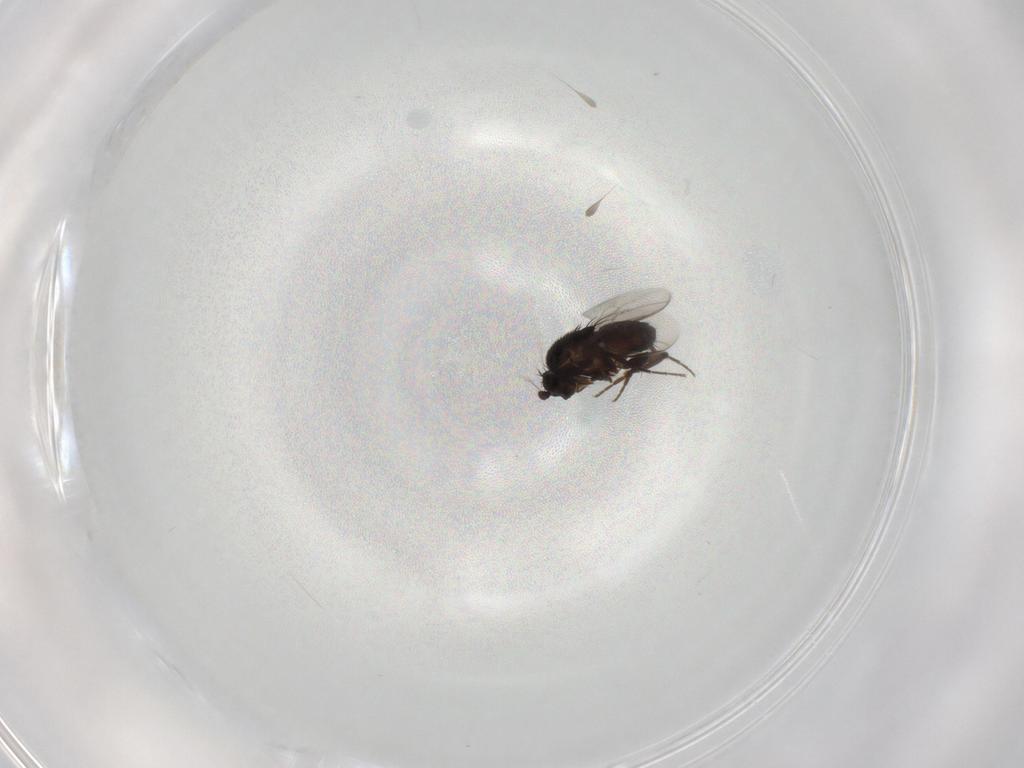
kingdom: Animalia
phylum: Arthropoda
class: Insecta
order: Diptera
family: Sphaeroceridae
